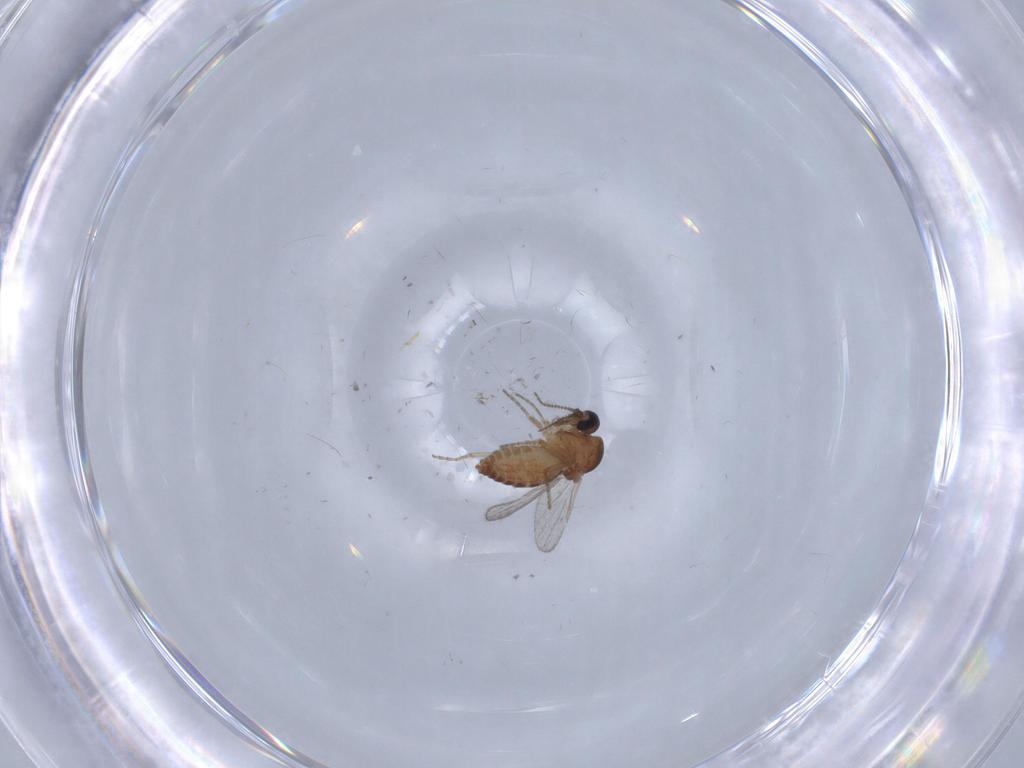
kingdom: Animalia
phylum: Arthropoda
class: Insecta
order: Diptera
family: Ceratopogonidae
